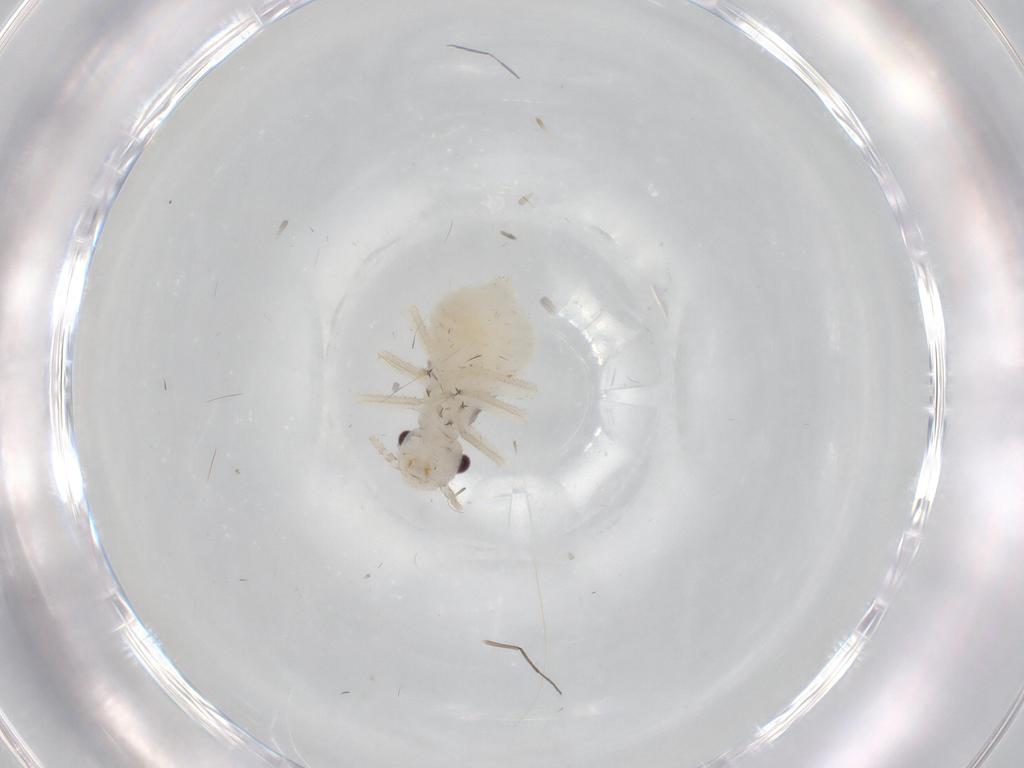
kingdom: Animalia
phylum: Arthropoda
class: Insecta
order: Psocodea
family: Amphipsocidae
